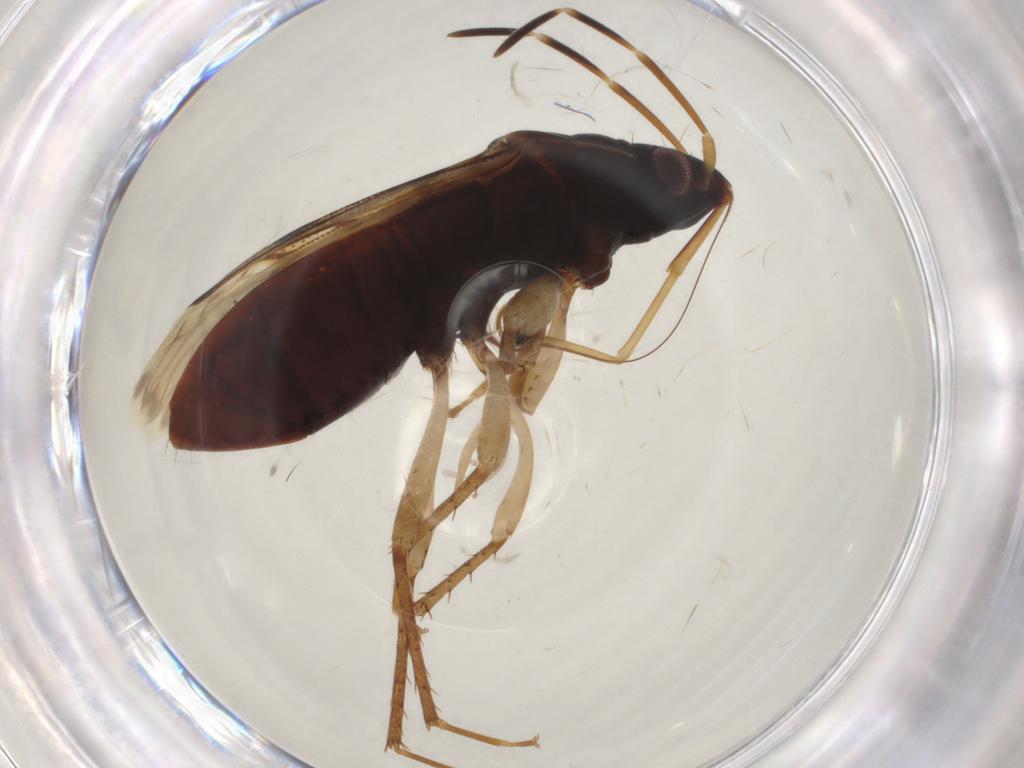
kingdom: Animalia
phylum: Arthropoda
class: Insecta
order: Hemiptera
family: Rhyparochromidae
